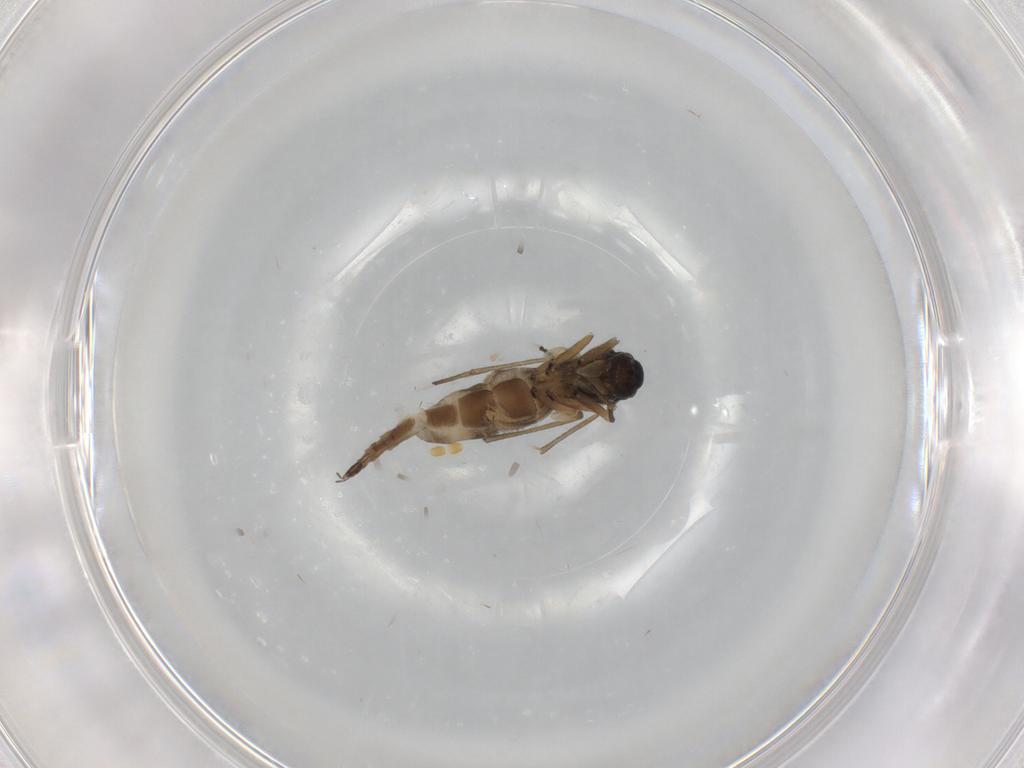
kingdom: Animalia
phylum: Arthropoda
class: Insecta
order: Diptera
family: Sciaridae
